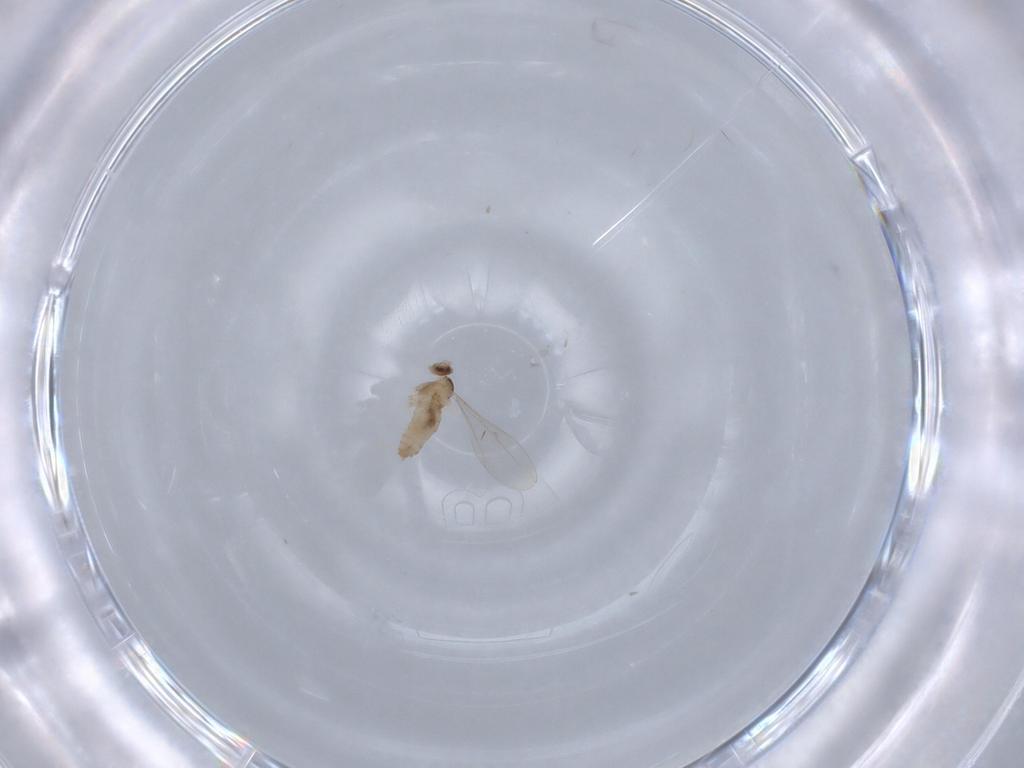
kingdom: Animalia
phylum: Arthropoda
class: Insecta
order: Diptera
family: Cecidomyiidae
